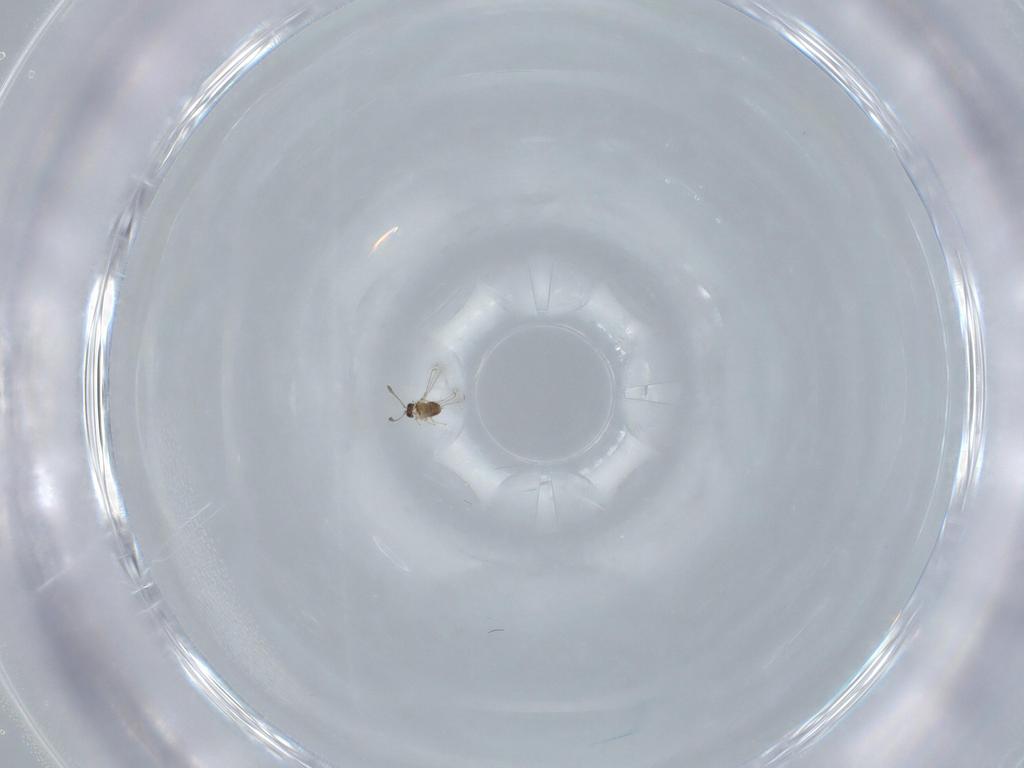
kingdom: Animalia
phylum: Arthropoda
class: Insecta
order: Hymenoptera
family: Mymaridae
